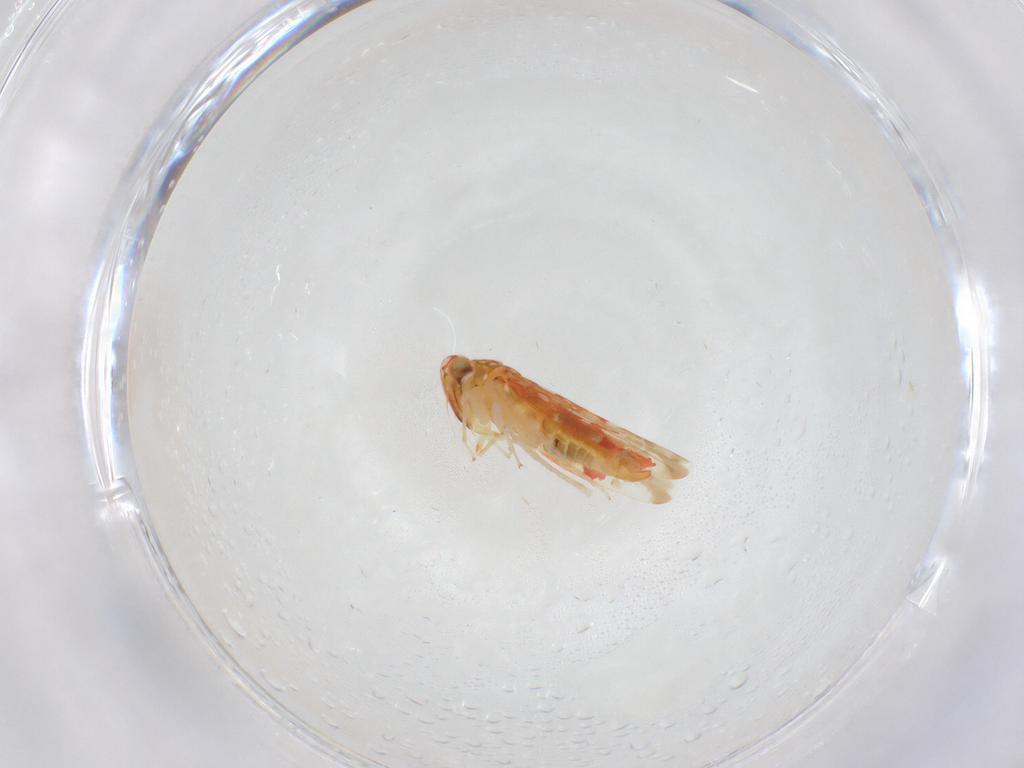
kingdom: Animalia
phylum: Arthropoda
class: Insecta
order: Hemiptera
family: Cicadellidae
